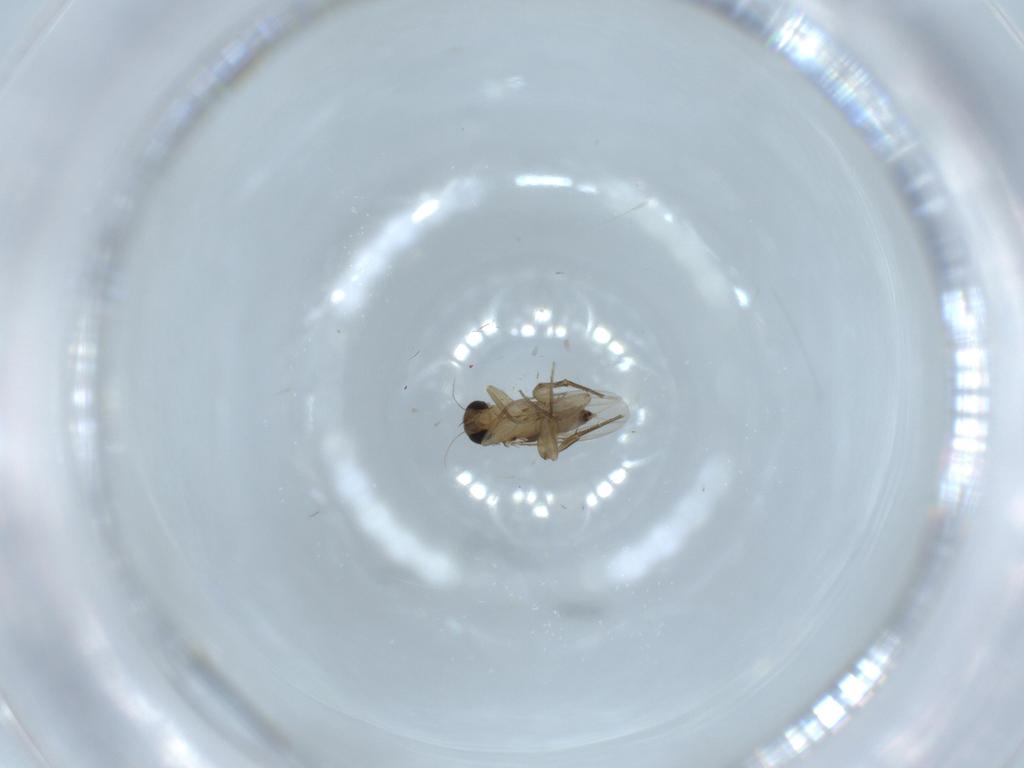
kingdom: Animalia
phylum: Arthropoda
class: Insecta
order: Diptera
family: Phoridae
